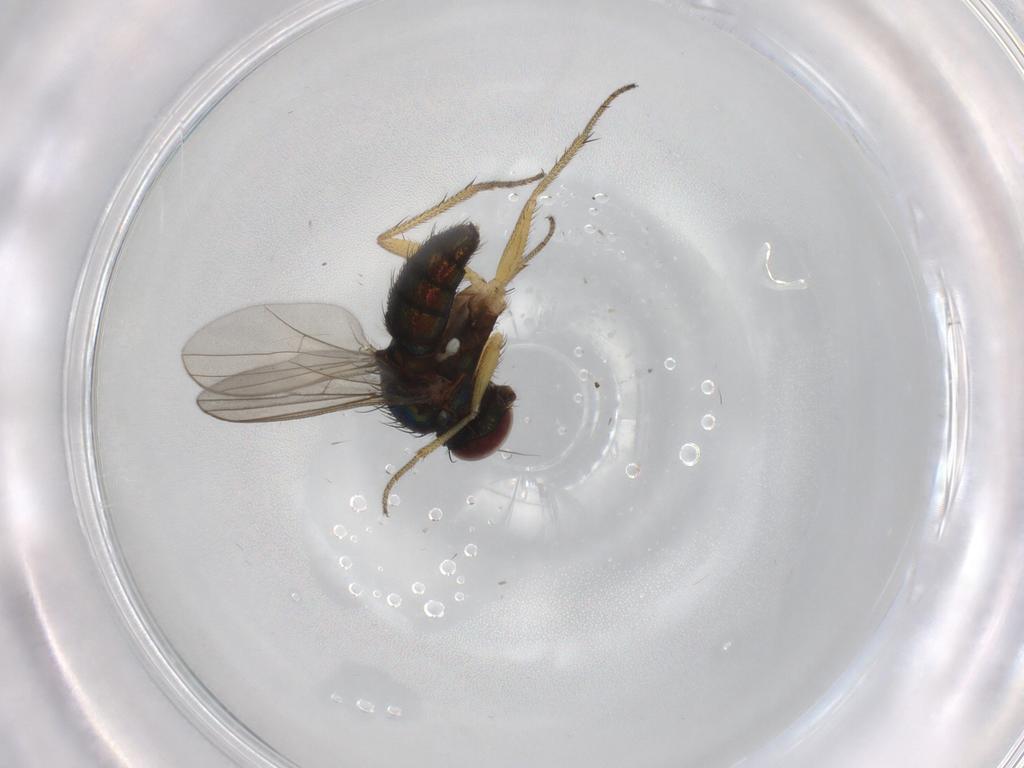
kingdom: Animalia
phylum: Arthropoda
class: Insecta
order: Diptera
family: Dolichopodidae
